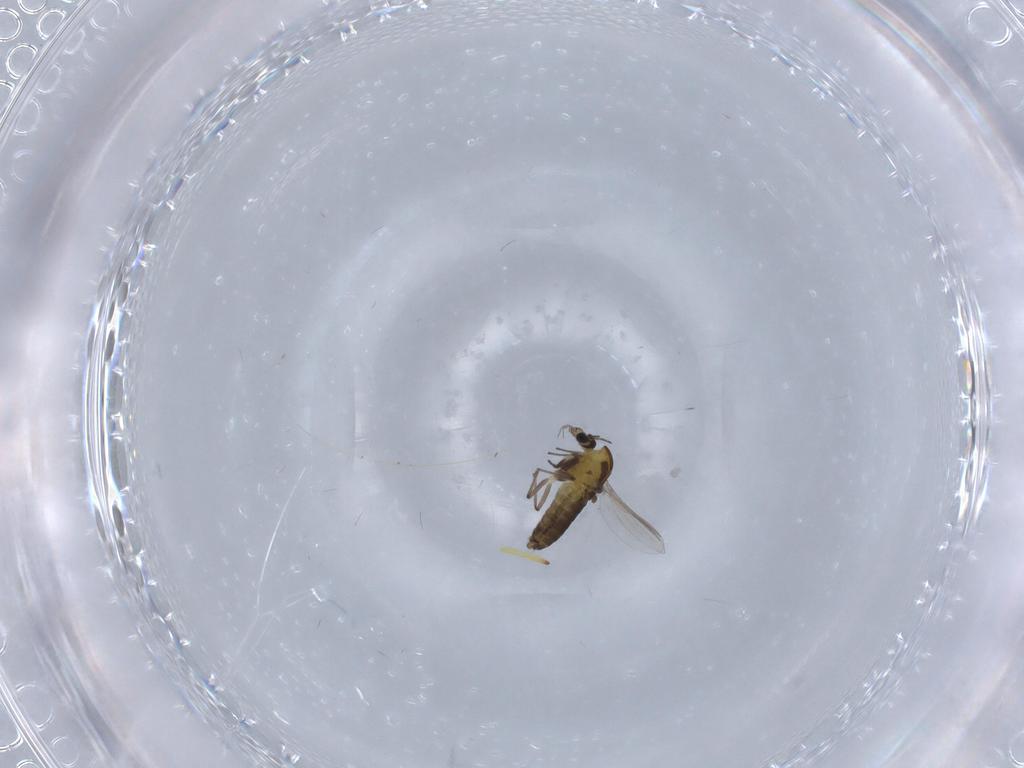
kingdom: Animalia
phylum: Arthropoda
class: Insecta
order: Diptera
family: Chironomidae
